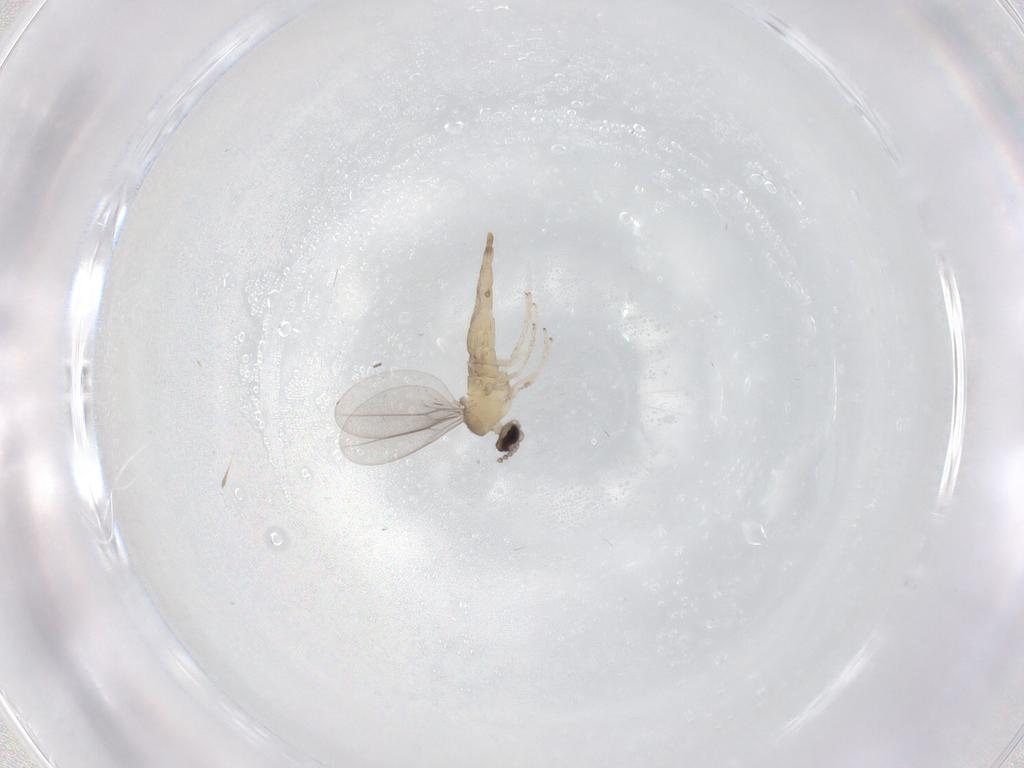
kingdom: Animalia
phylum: Arthropoda
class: Insecta
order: Diptera
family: Cecidomyiidae
